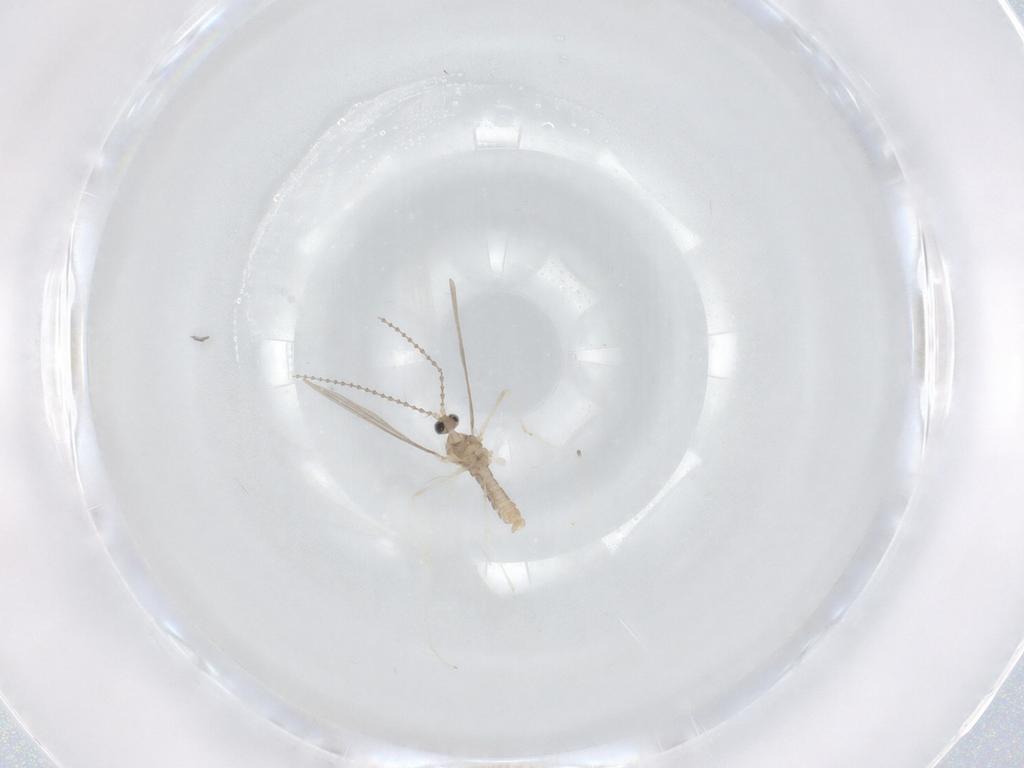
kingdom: Animalia
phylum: Arthropoda
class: Insecta
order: Diptera
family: Cecidomyiidae
